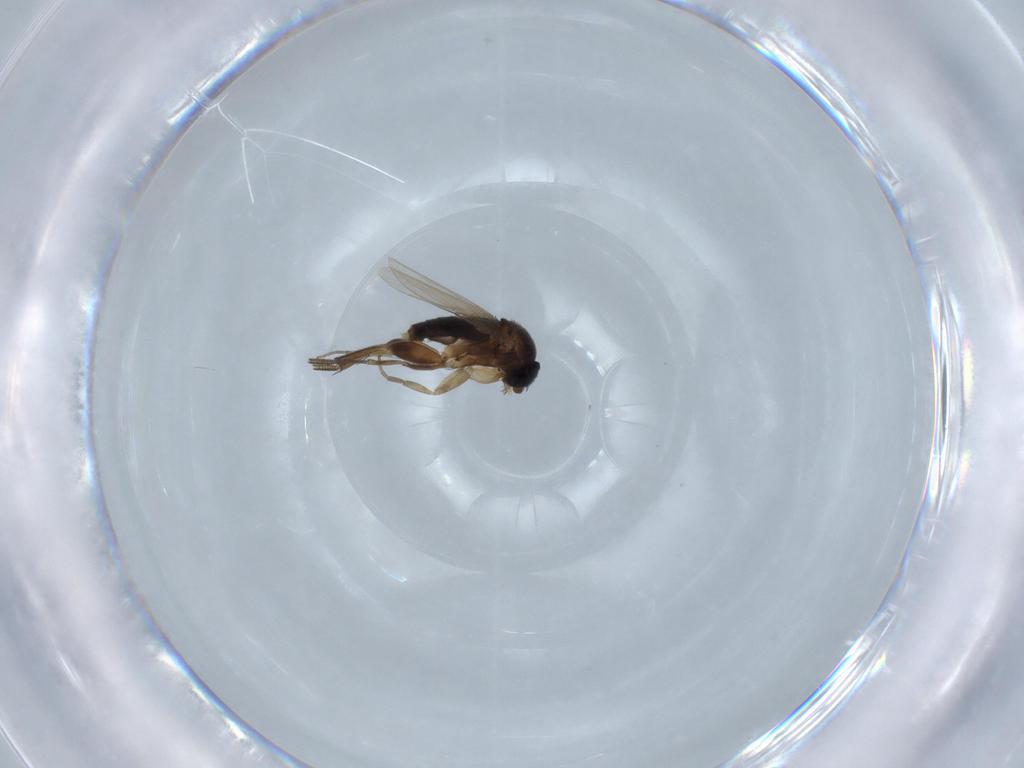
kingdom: Animalia
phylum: Arthropoda
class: Insecta
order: Diptera
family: Phoridae
